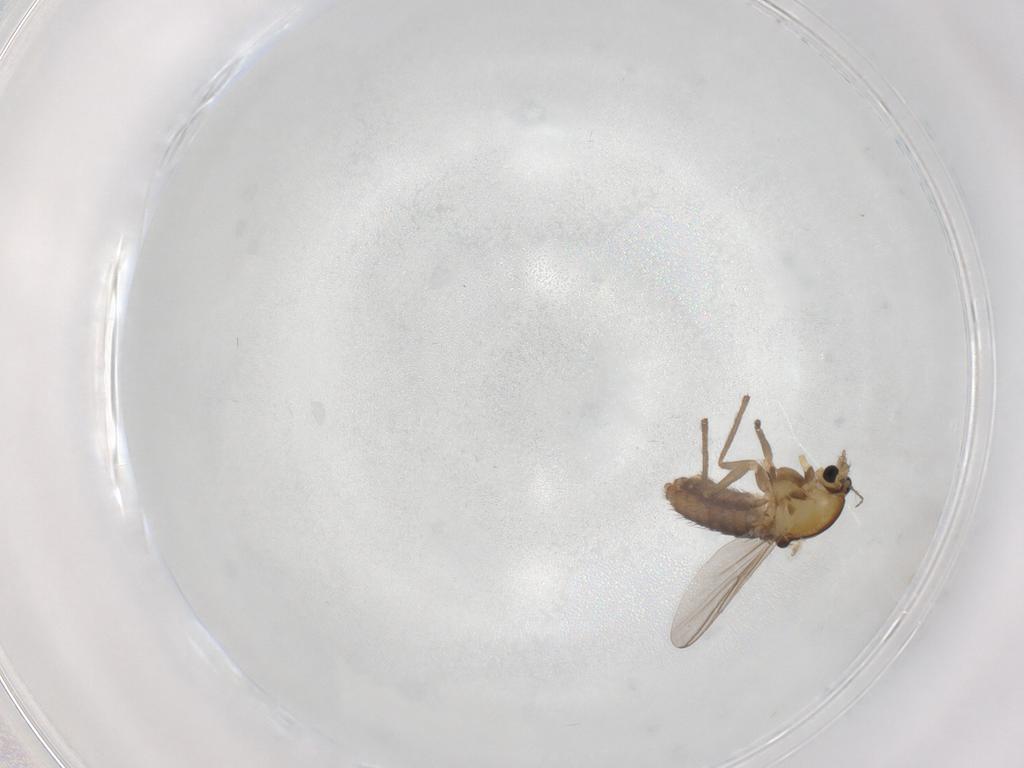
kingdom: Animalia
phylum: Arthropoda
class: Insecta
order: Diptera
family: Chironomidae
